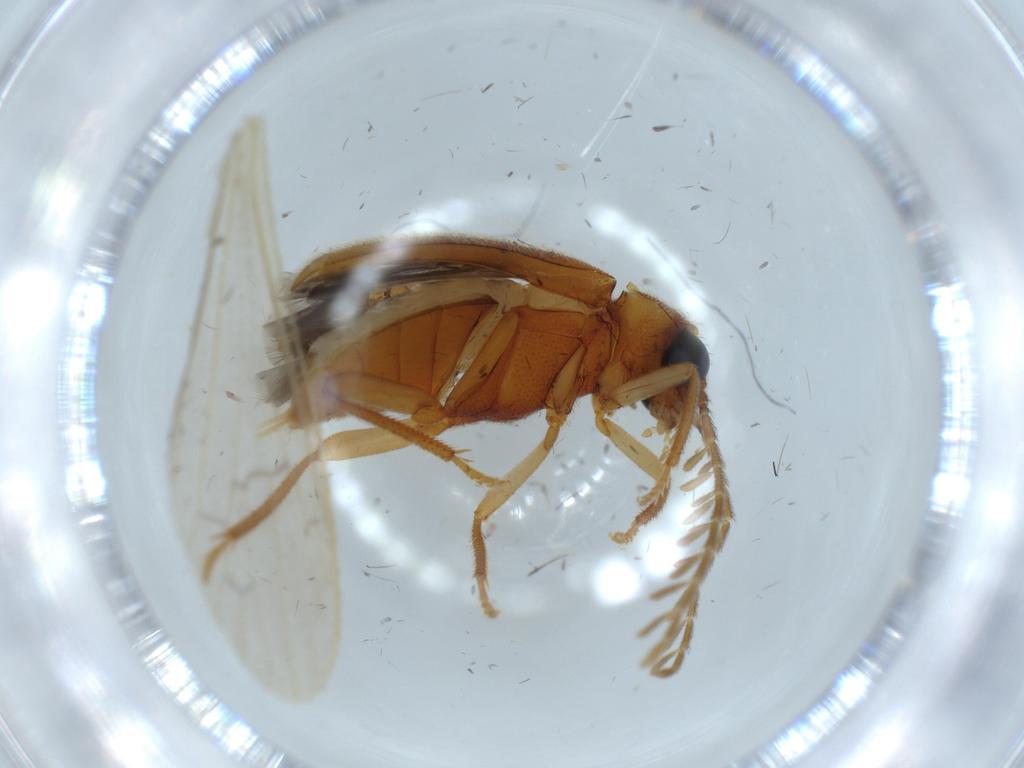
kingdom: Animalia
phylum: Arthropoda
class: Insecta
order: Coleoptera
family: Ptilodactylidae
